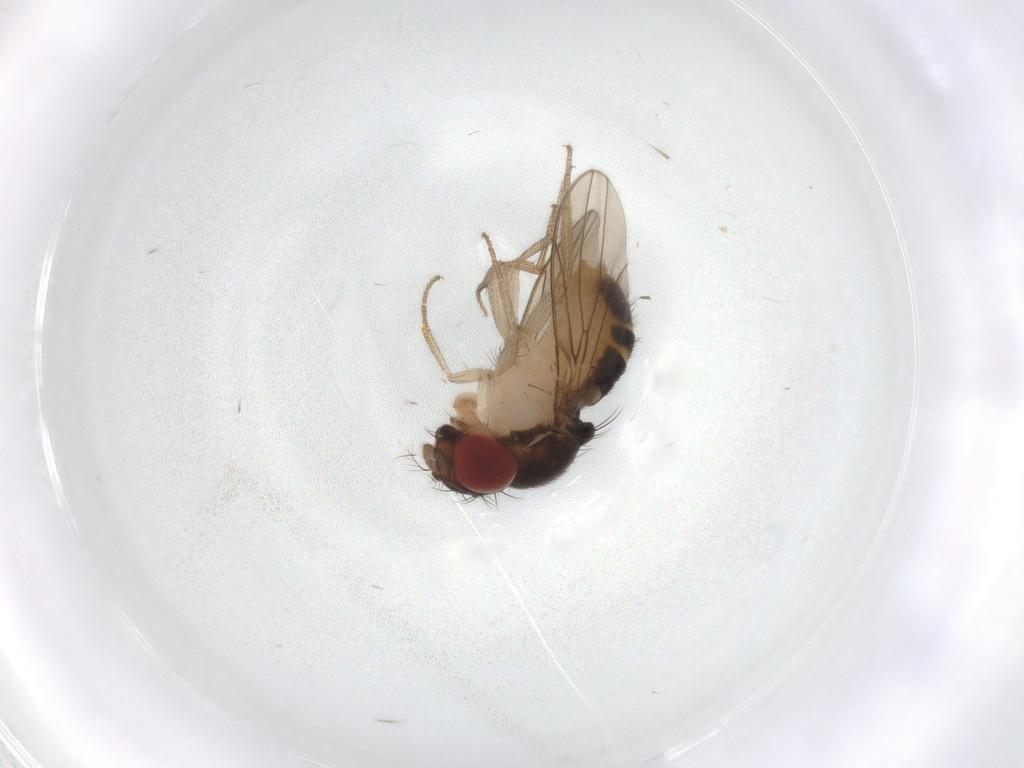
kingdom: Animalia
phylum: Arthropoda
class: Insecta
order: Diptera
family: Drosophilidae
